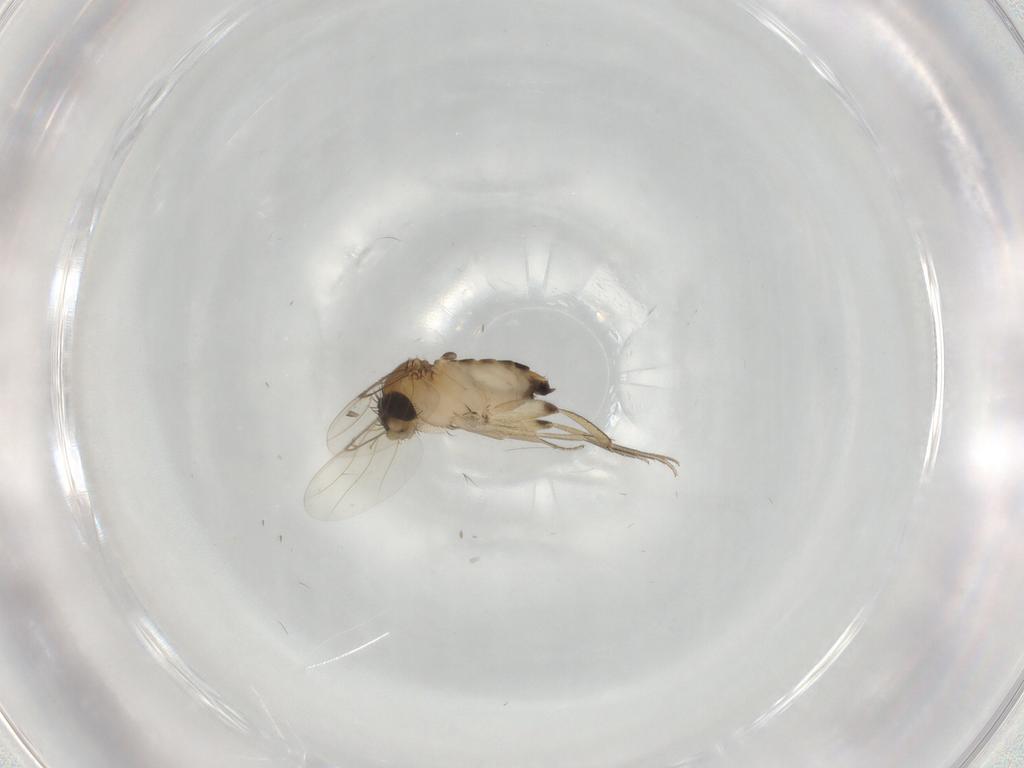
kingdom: Animalia
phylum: Arthropoda
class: Insecta
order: Diptera
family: Phoridae
